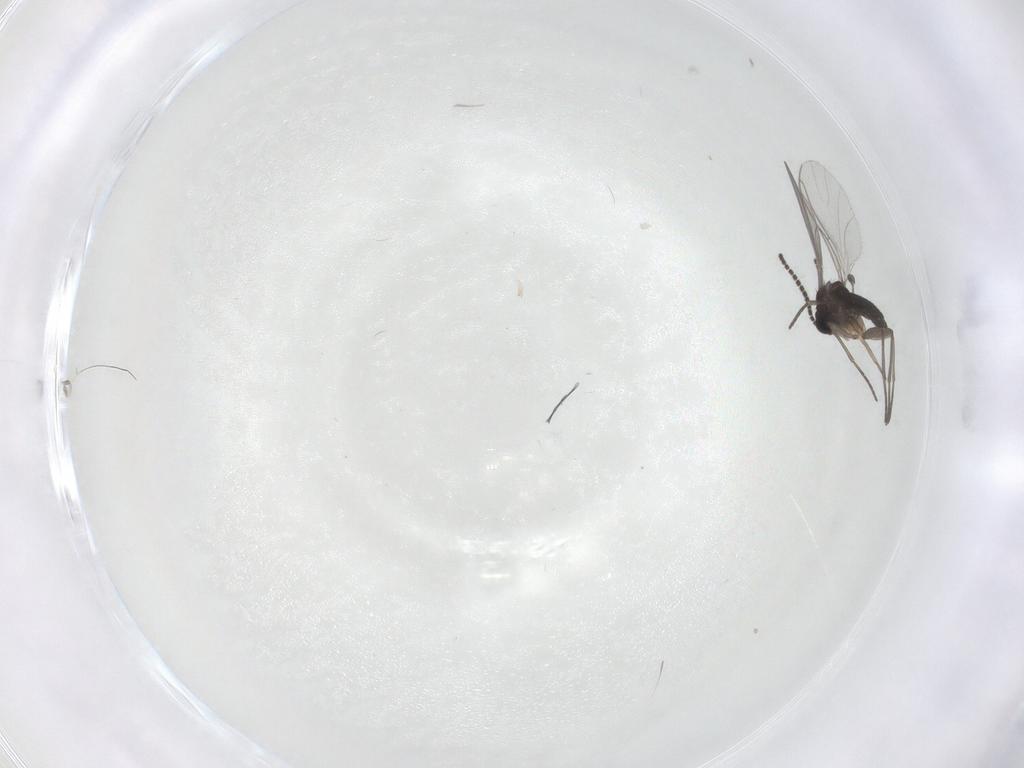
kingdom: Animalia
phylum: Arthropoda
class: Insecta
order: Diptera
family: Sciaridae
